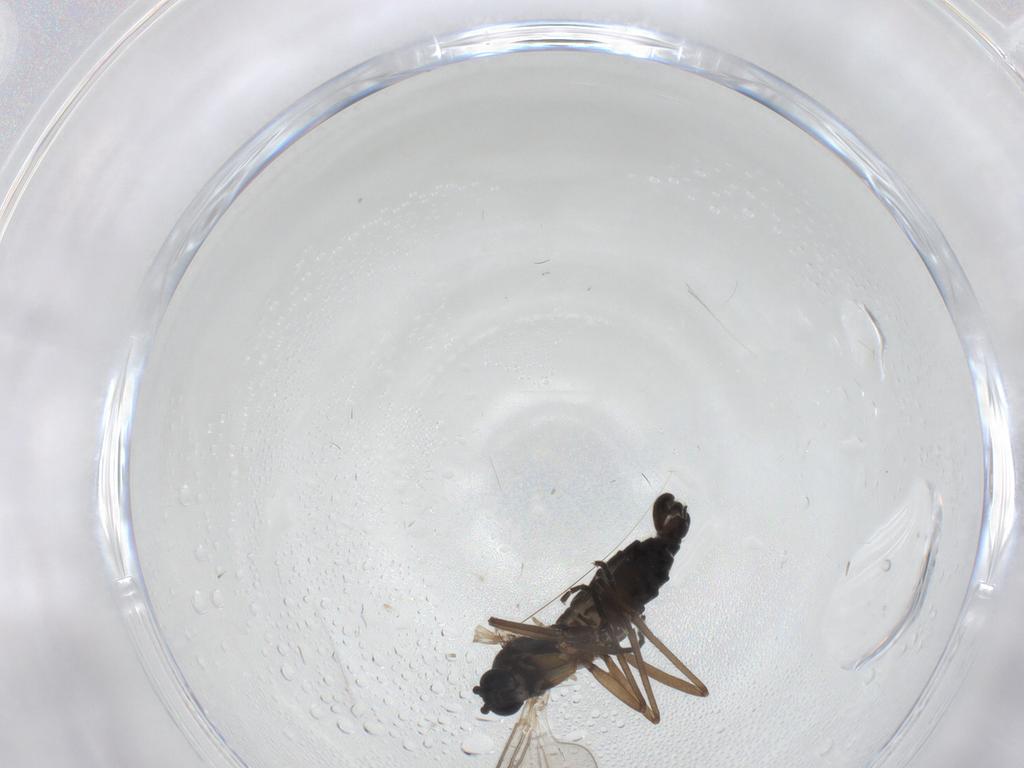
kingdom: Animalia
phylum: Arthropoda
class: Insecta
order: Diptera
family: Sciaridae
